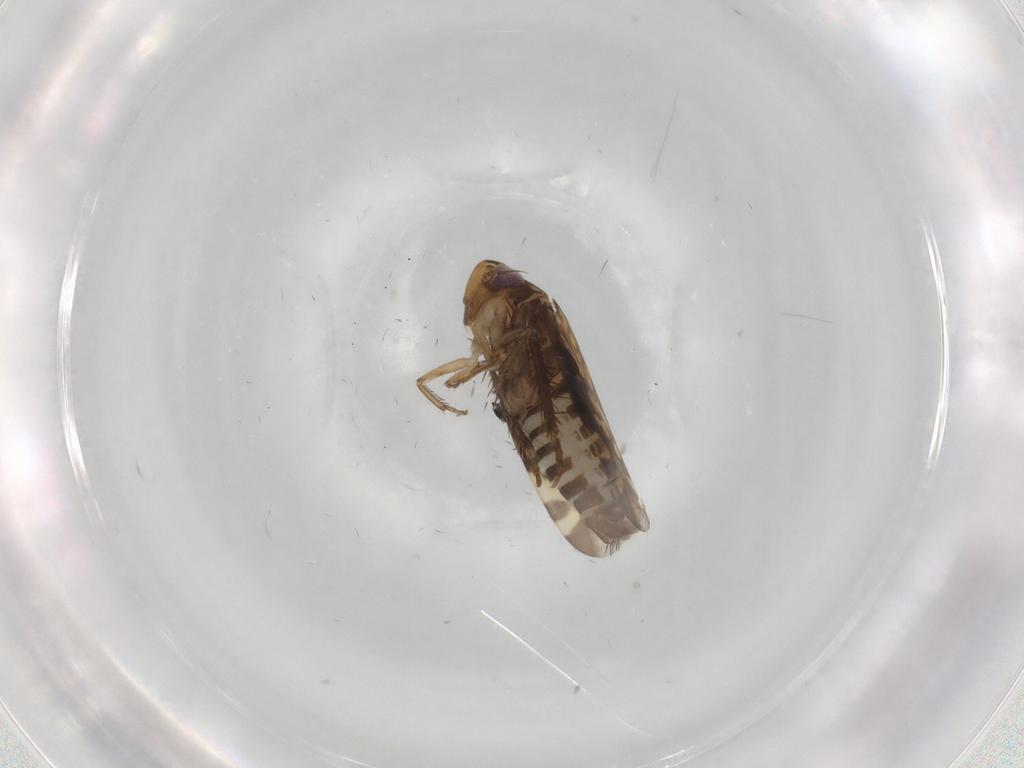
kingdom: Animalia
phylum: Arthropoda
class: Insecta
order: Hemiptera
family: Cicadellidae
